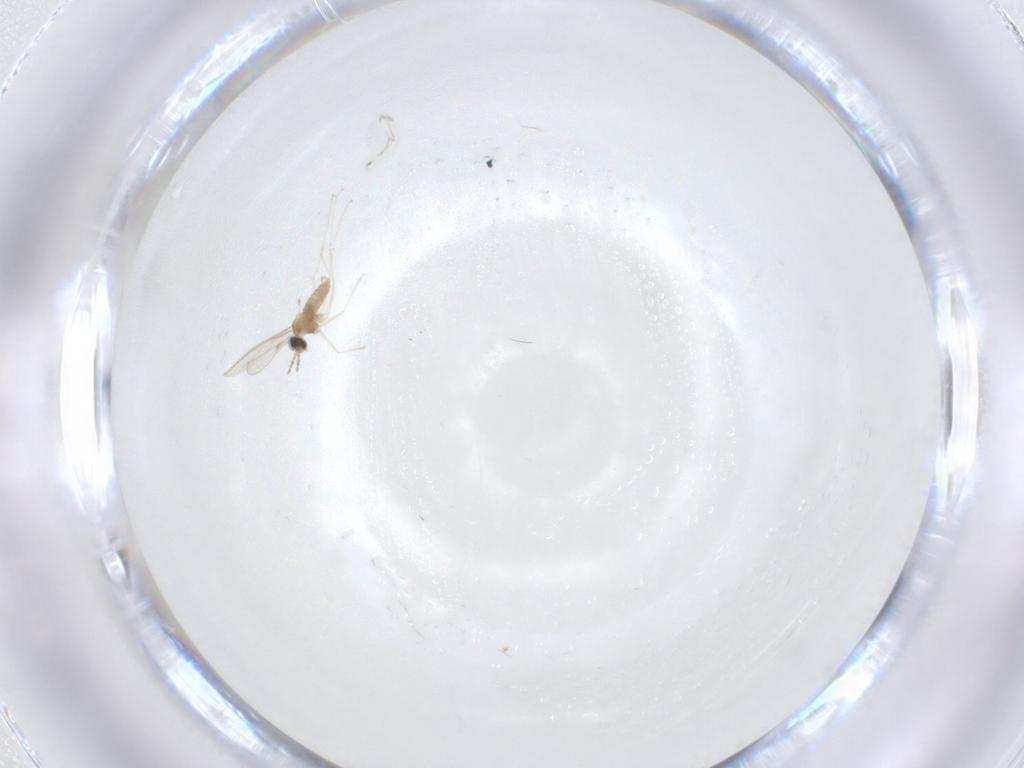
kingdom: Animalia
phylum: Arthropoda
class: Insecta
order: Diptera
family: Cecidomyiidae
